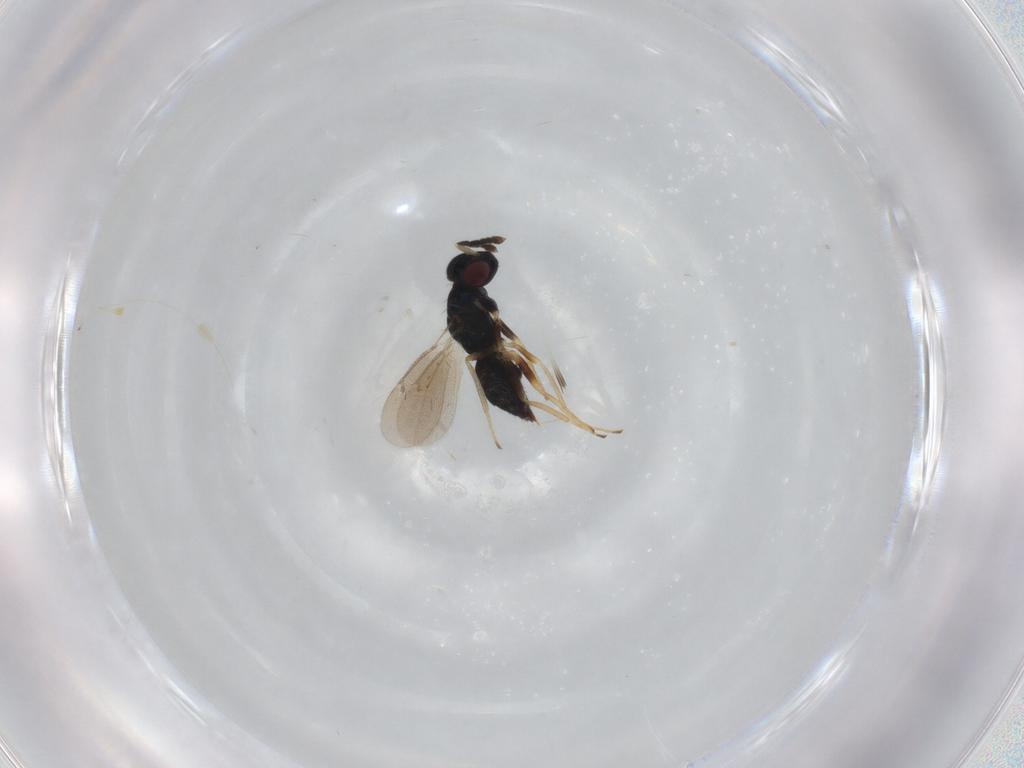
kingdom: Animalia
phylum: Arthropoda
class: Insecta
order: Hymenoptera
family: Eulophidae
